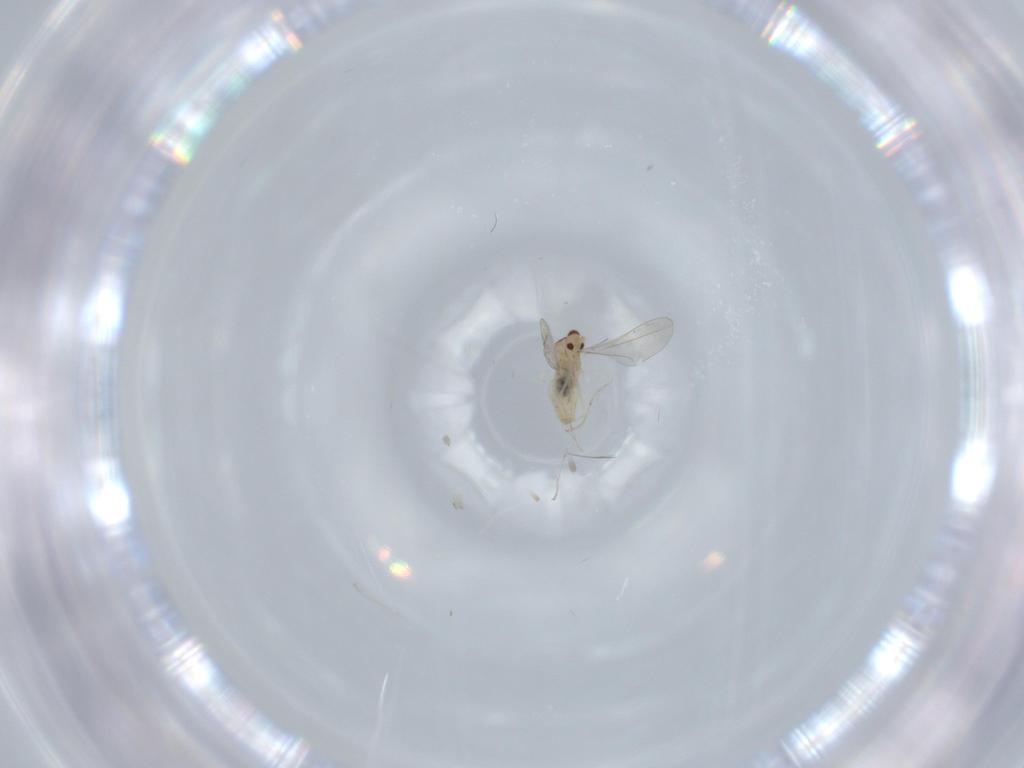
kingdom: Animalia
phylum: Arthropoda
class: Insecta
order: Diptera
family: Cecidomyiidae
